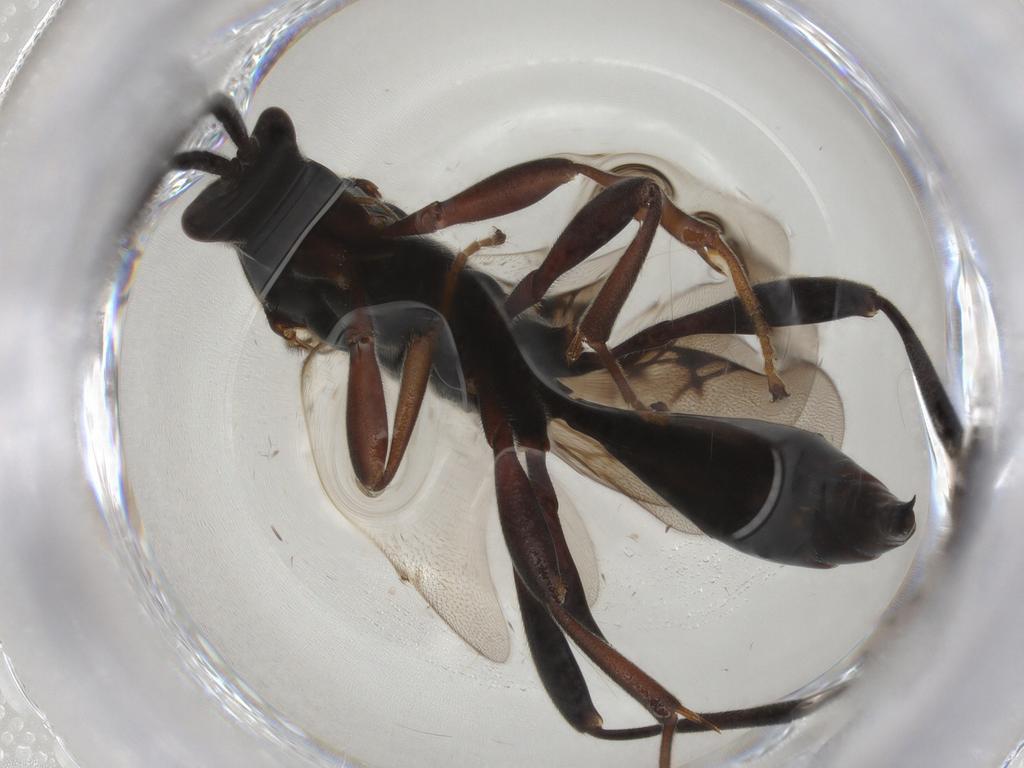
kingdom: Animalia
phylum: Arthropoda
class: Insecta
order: Hymenoptera
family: Proctotrupidae
